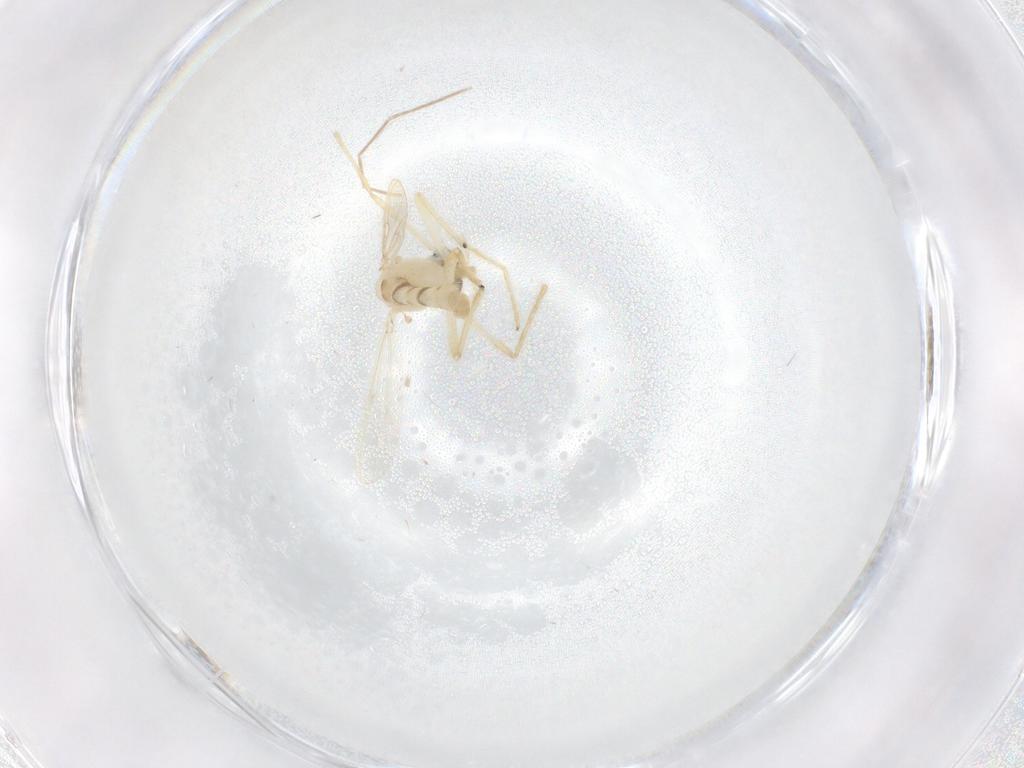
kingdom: Animalia
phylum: Arthropoda
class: Insecta
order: Diptera
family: Chironomidae
